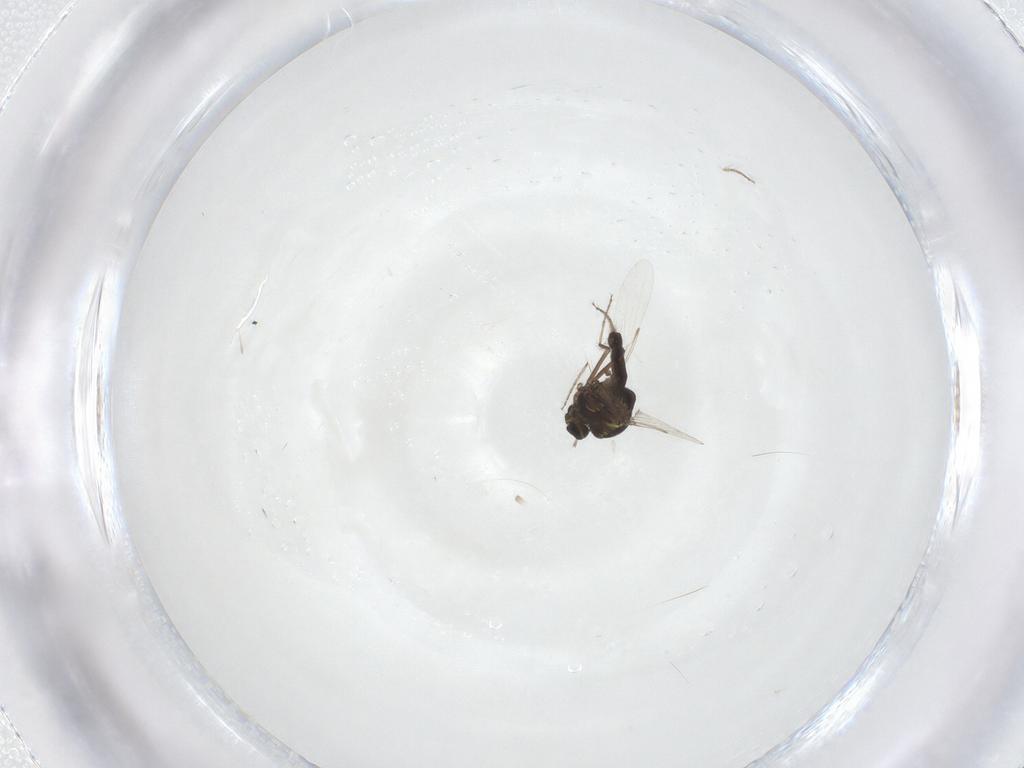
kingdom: Animalia
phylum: Arthropoda
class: Insecta
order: Diptera
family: Ceratopogonidae
